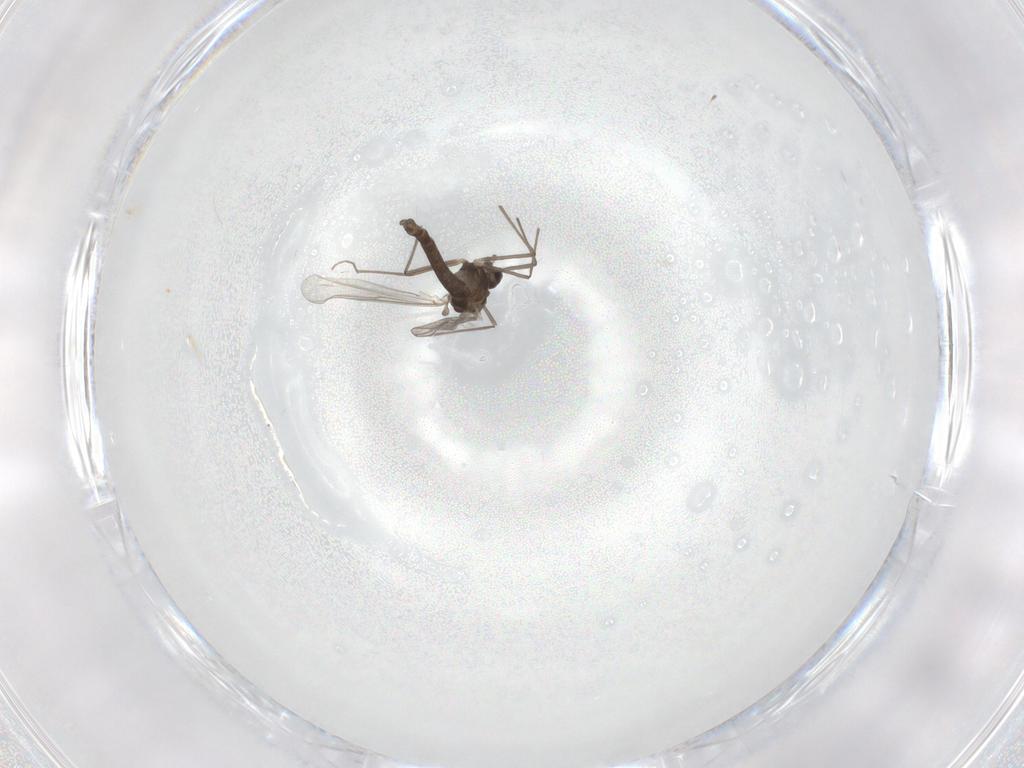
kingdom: Animalia
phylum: Arthropoda
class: Insecta
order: Diptera
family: Chironomidae
